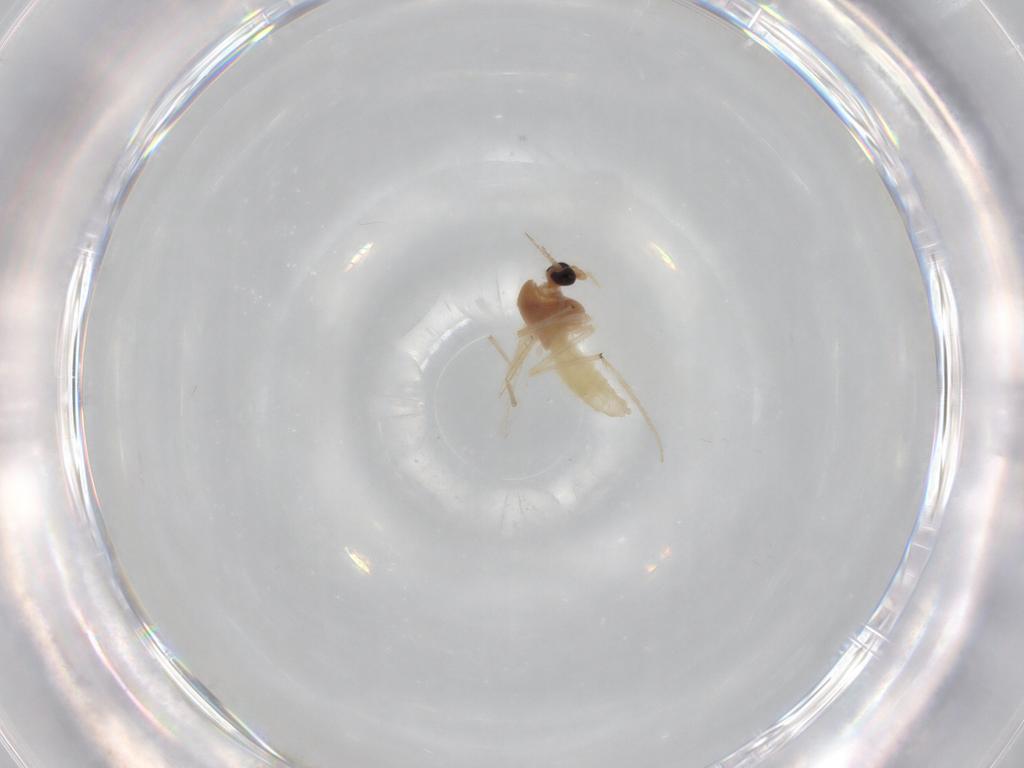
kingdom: Animalia
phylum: Arthropoda
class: Insecta
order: Diptera
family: Chironomidae
